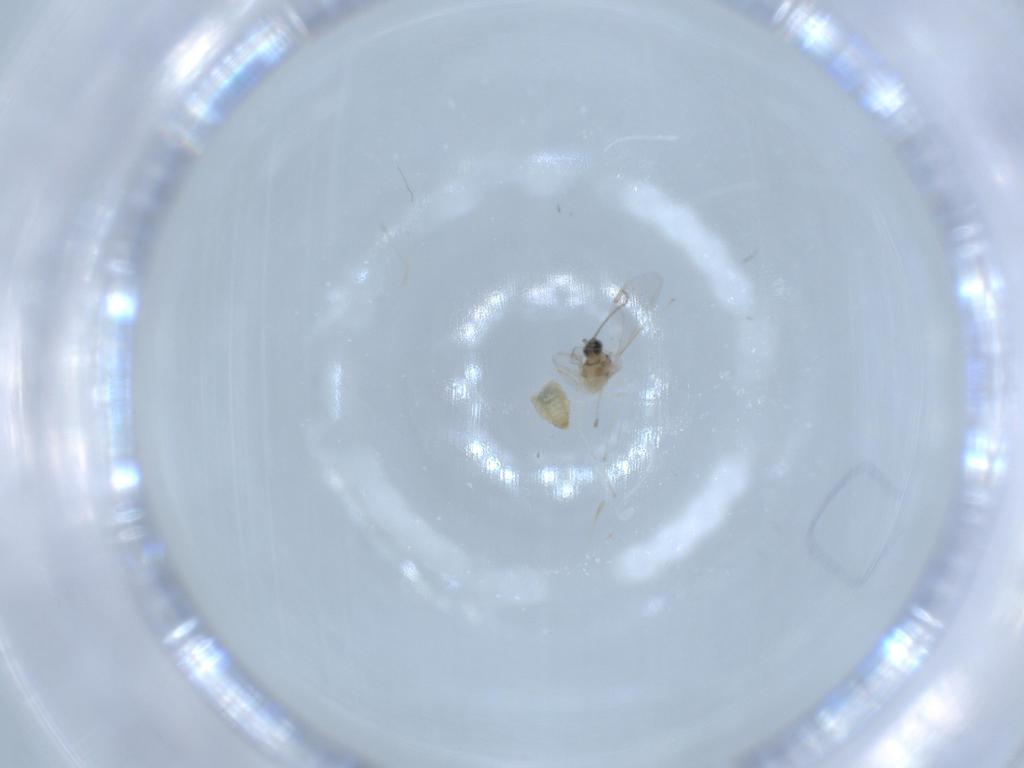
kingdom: Animalia
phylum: Arthropoda
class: Insecta
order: Diptera
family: Cecidomyiidae
